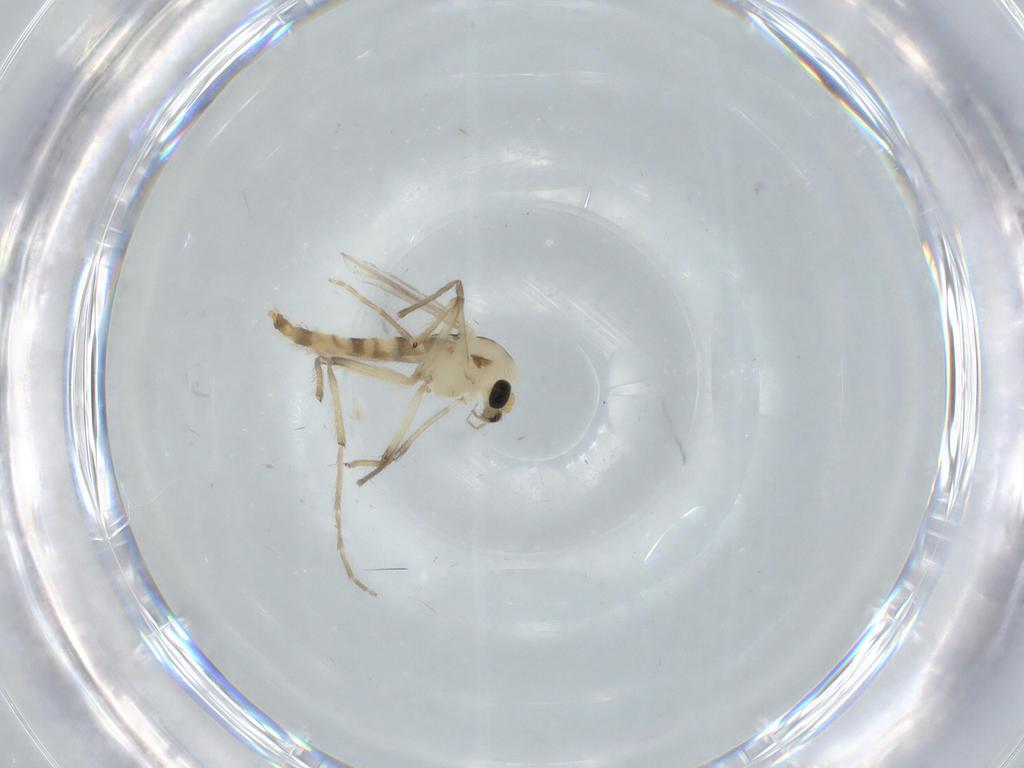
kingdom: Animalia
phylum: Arthropoda
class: Insecta
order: Diptera
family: Chironomidae
